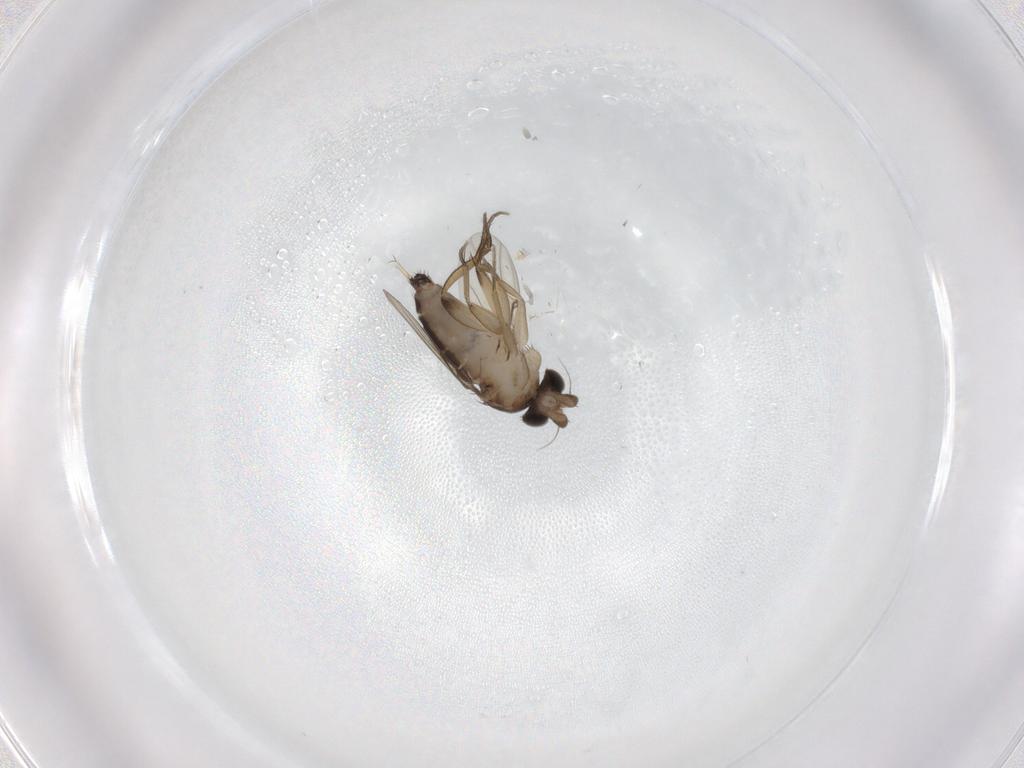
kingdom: Animalia
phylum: Arthropoda
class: Insecta
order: Diptera
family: Phoridae
